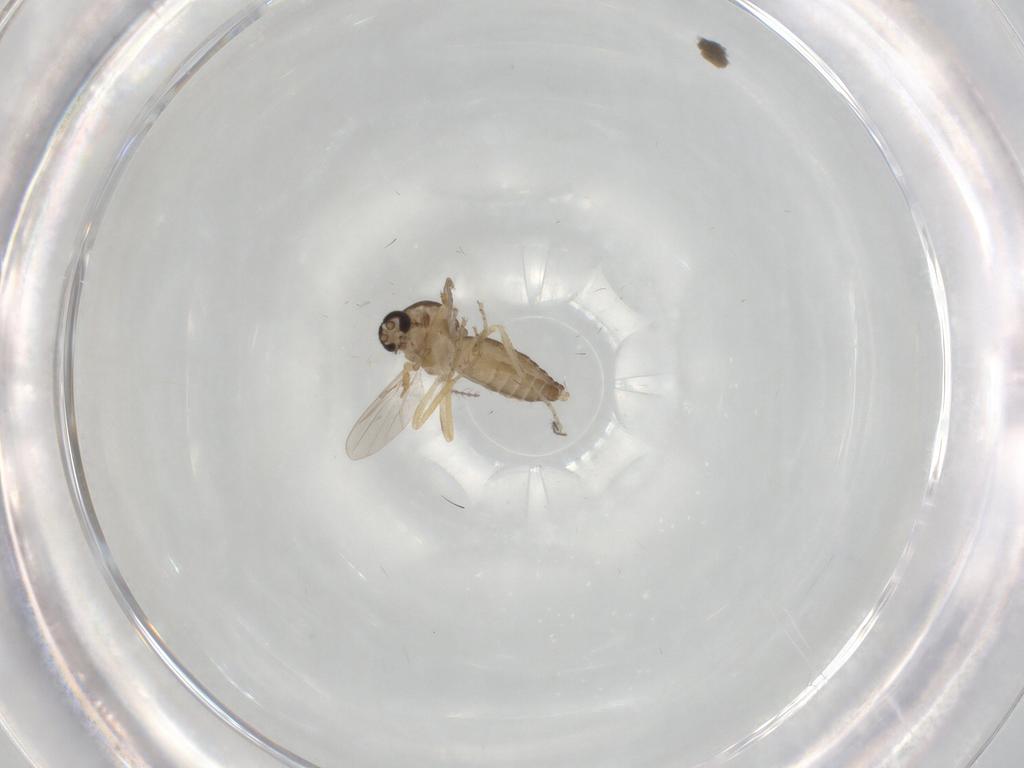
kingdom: Animalia
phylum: Arthropoda
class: Insecta
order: Diptera
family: Ceratopogonidae
